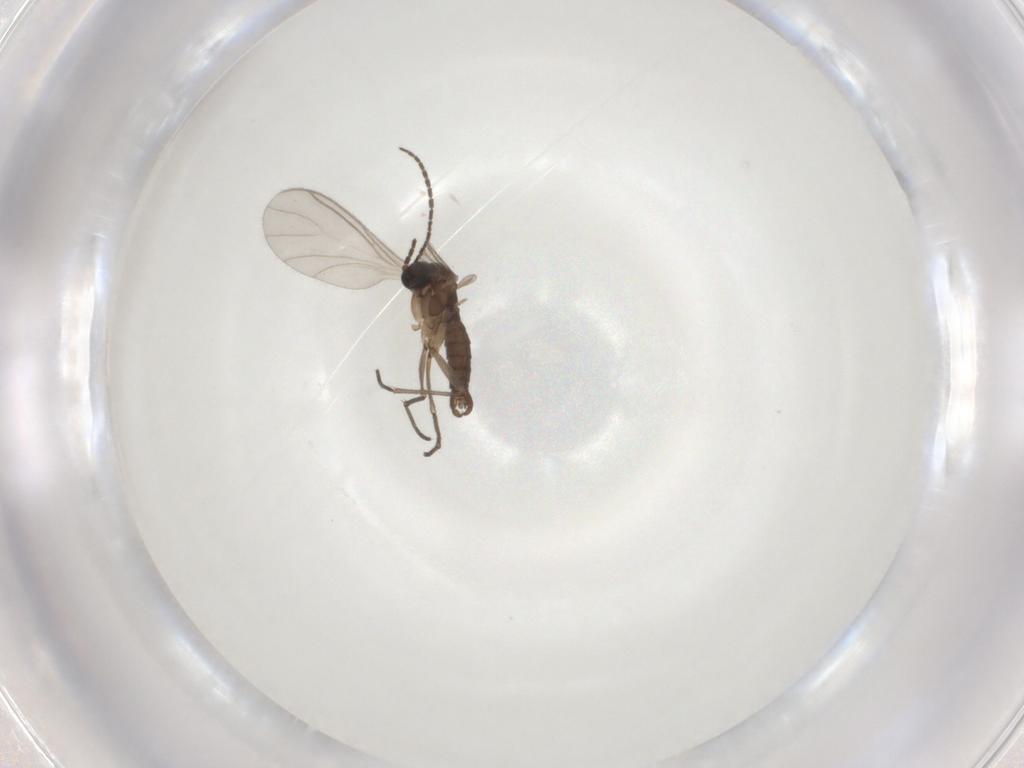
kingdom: Animalia
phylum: Arthropoda
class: Insecta
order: Diptera
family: Sciaridae
